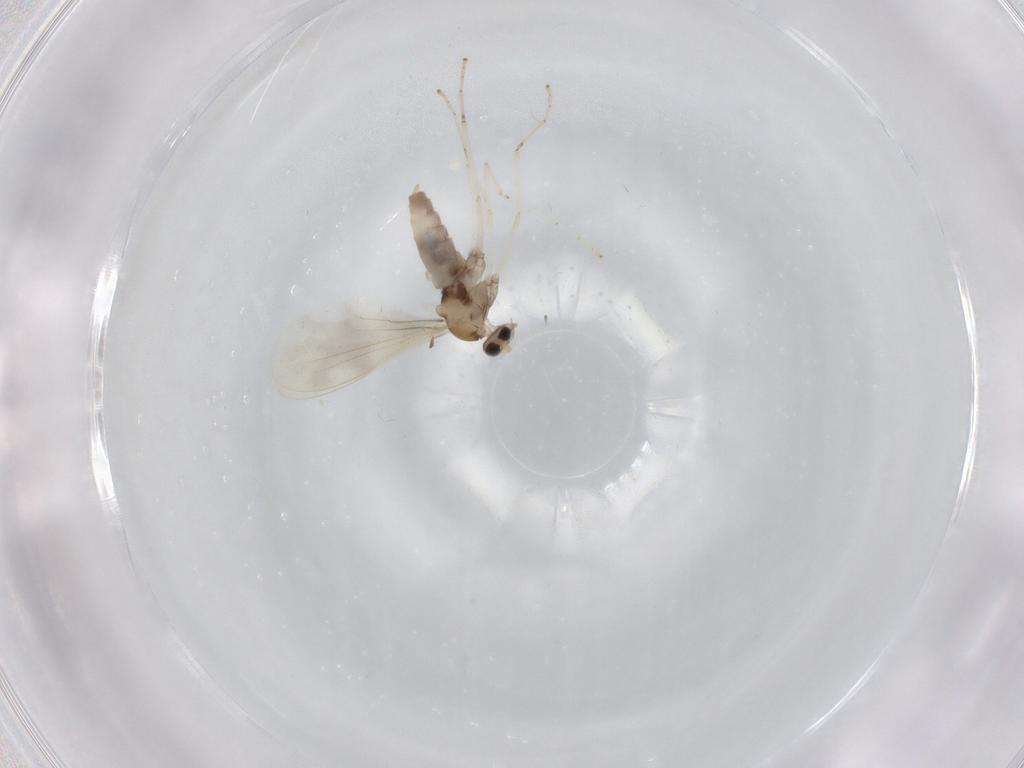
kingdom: Animalia
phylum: Arthropoda
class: Insecta
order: Diptera
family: Cecidomyiidae
